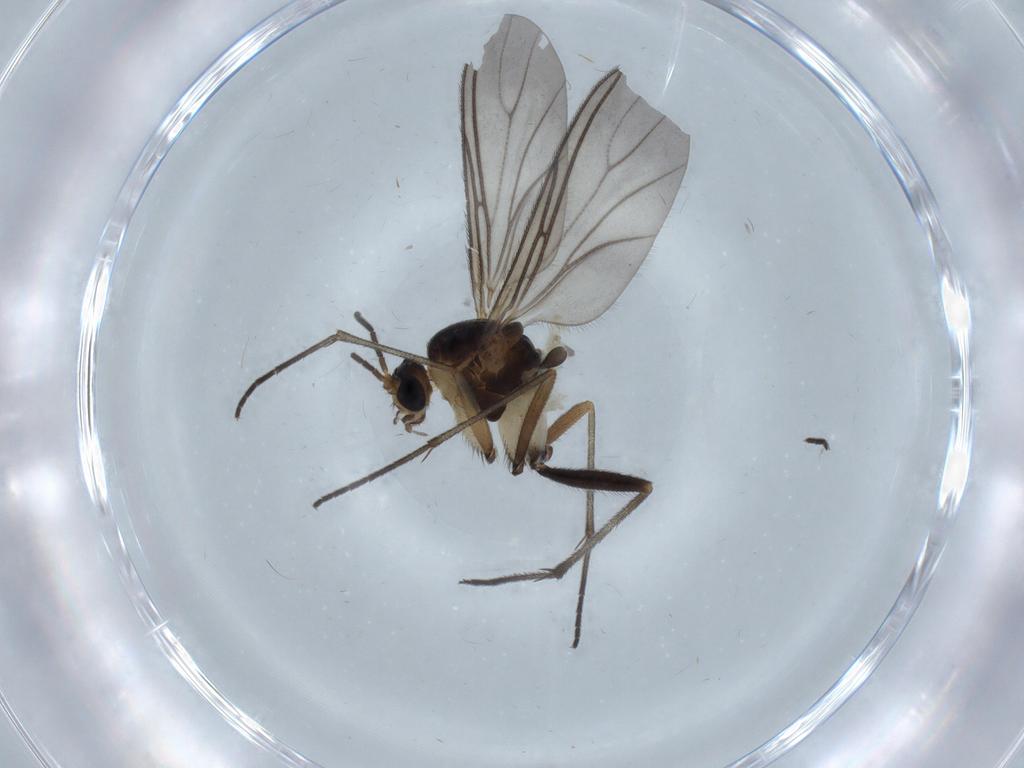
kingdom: Animalia
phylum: Arthropoda
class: Insecta
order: Diptera
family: Sciaridae
